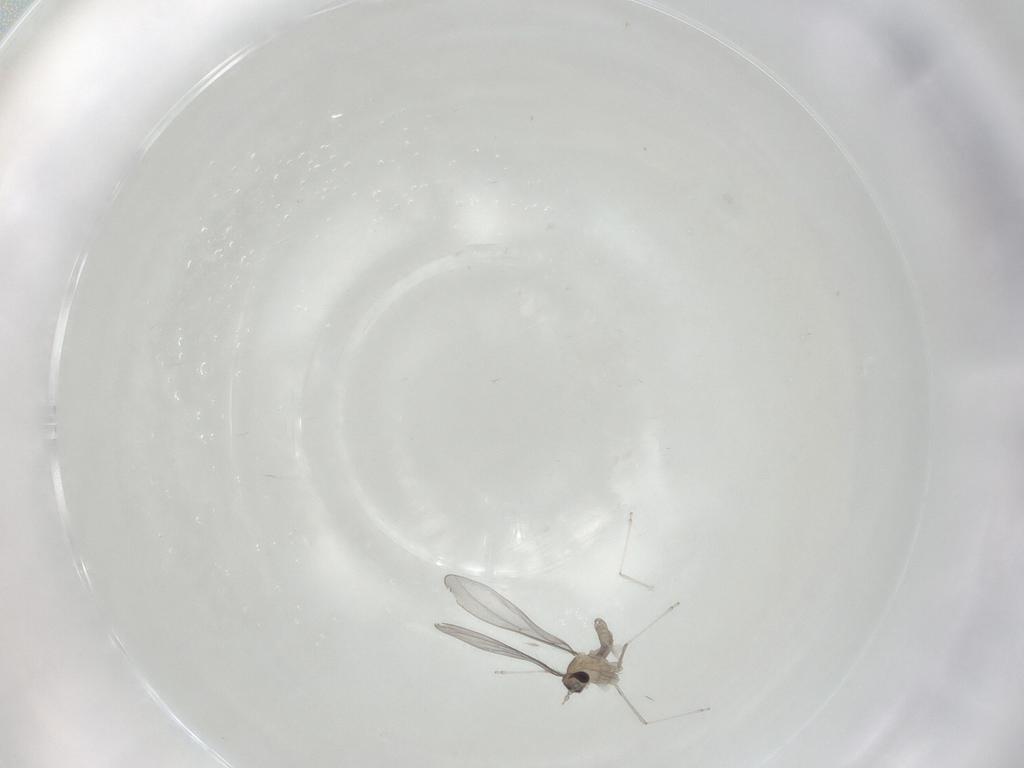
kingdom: Animalia
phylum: Arthropoda
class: Insecta
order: Diptera
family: Cecidomyiidae
